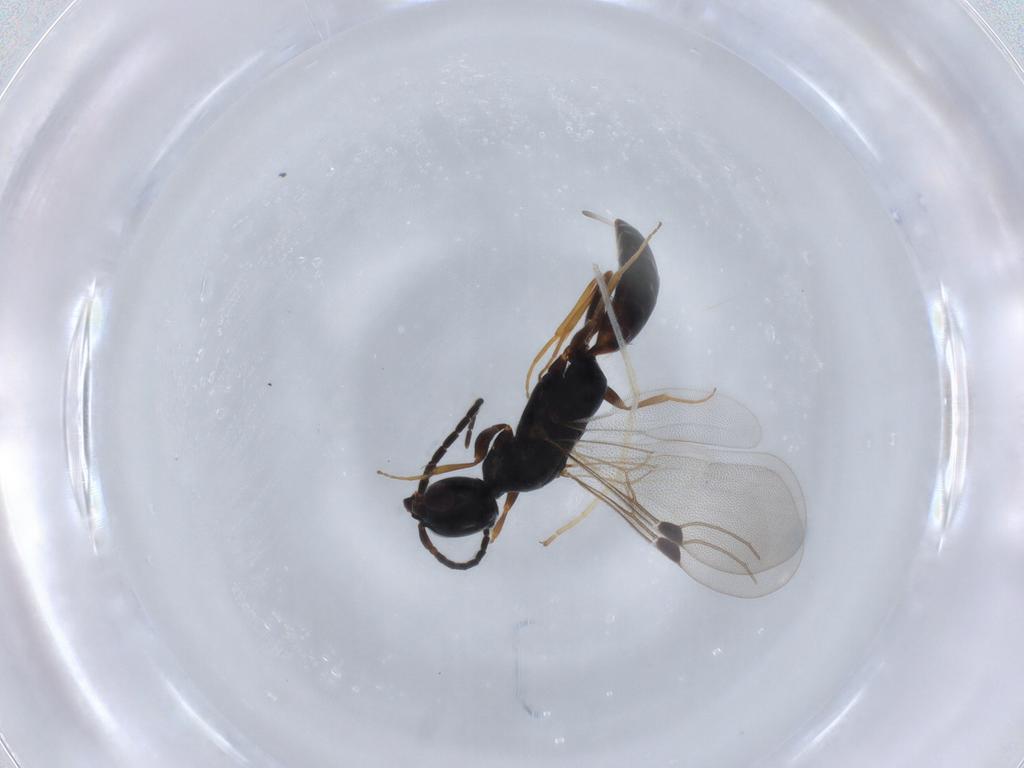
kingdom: Animalia
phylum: Arthropoda
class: Insecta
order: Hymenoptera
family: Bethylidae
